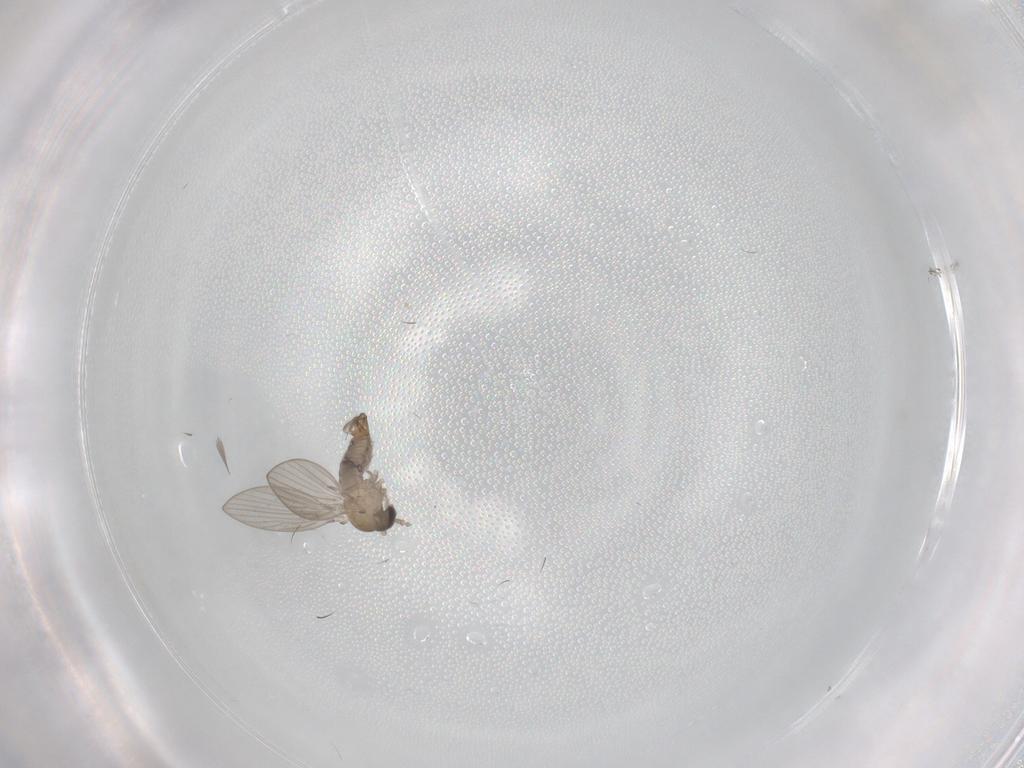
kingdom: Animalia
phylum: Arthropoda
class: Insecta
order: Diptera
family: Psychodidae
